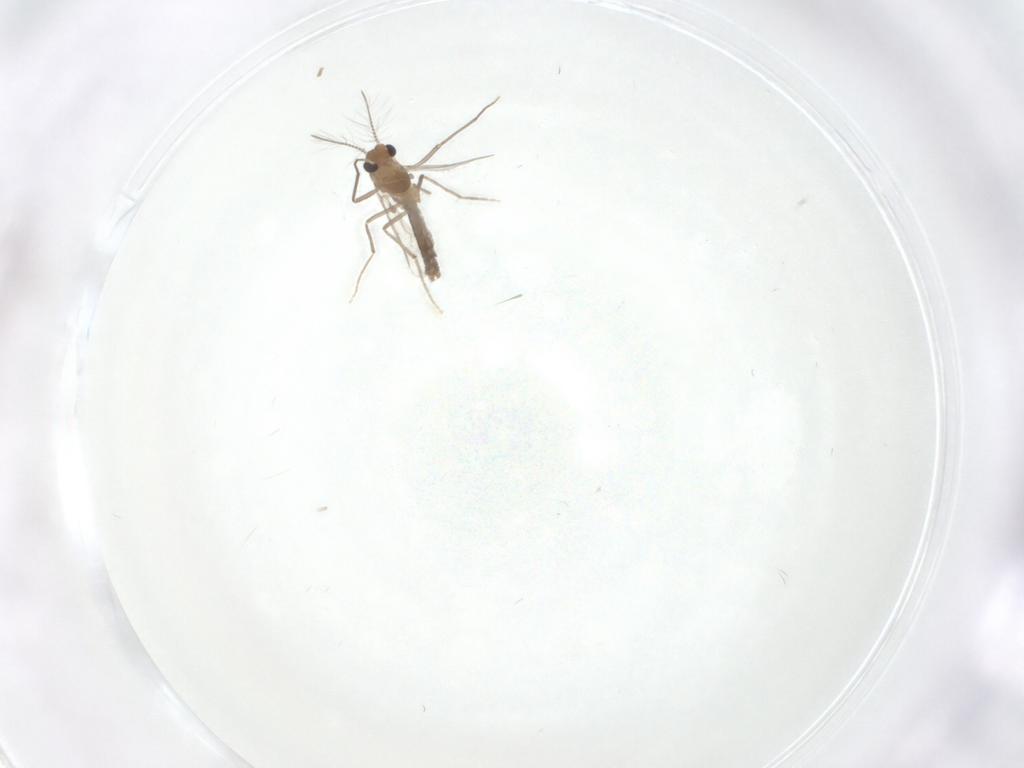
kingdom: Animalia
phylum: Arthropoda
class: Insecta
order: Diptera
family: Chironomidae
